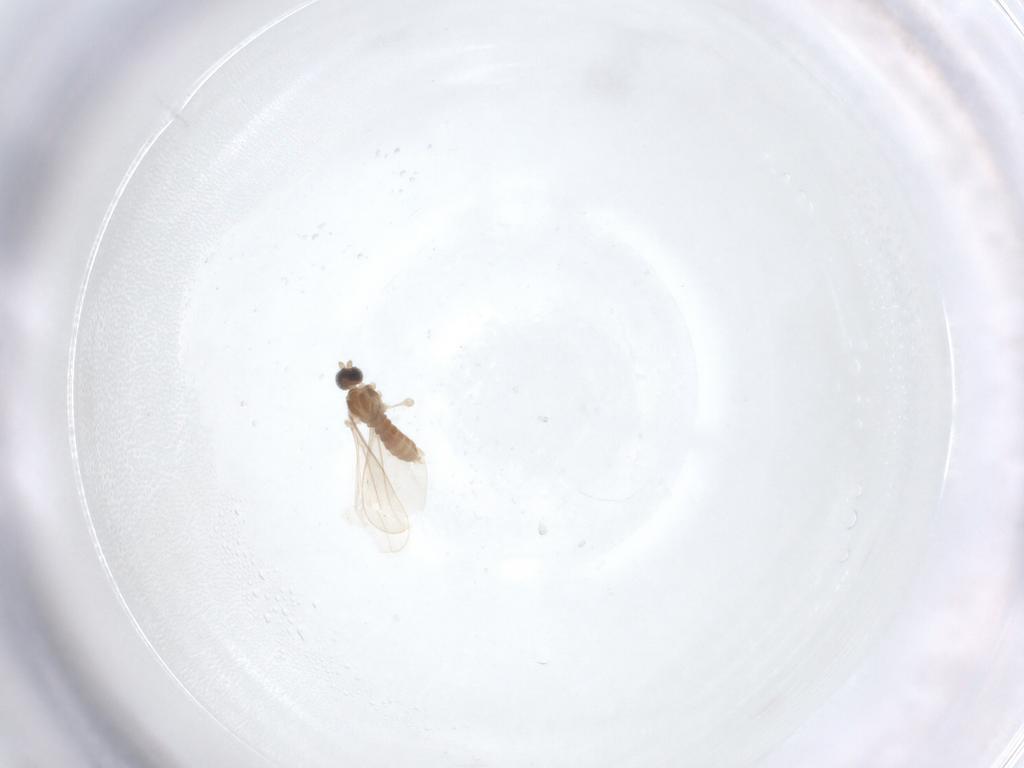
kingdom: Animalia
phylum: Arthropoda
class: Insecta
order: Diptera
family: Cecidomyiidae
